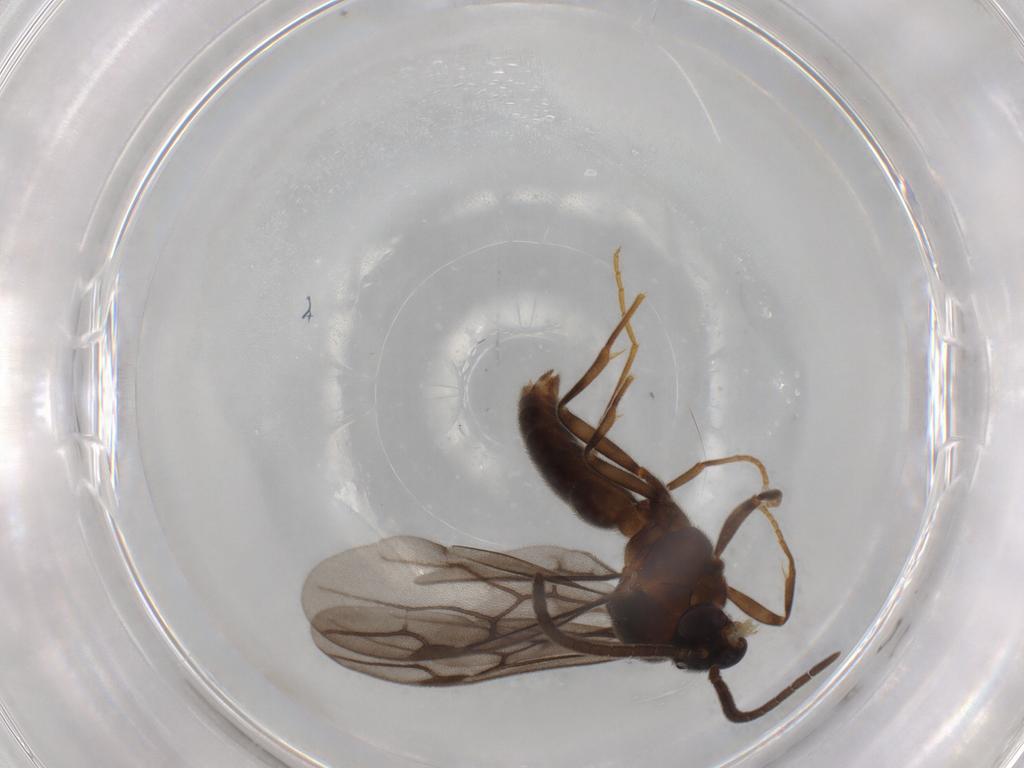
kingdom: Animalia
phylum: Arthropoda
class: Insecta
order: Hymenoptera
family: Formicidae
